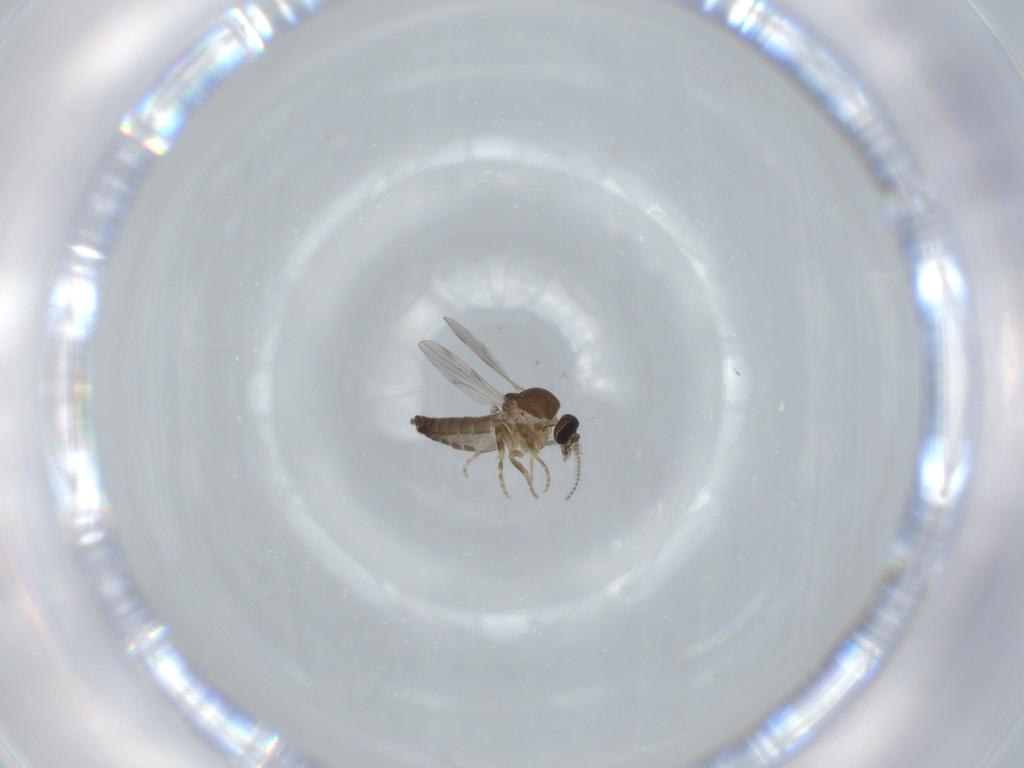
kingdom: Animalia
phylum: Arthropoda
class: Insecta
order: Diptera
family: Ceratopogonidae
